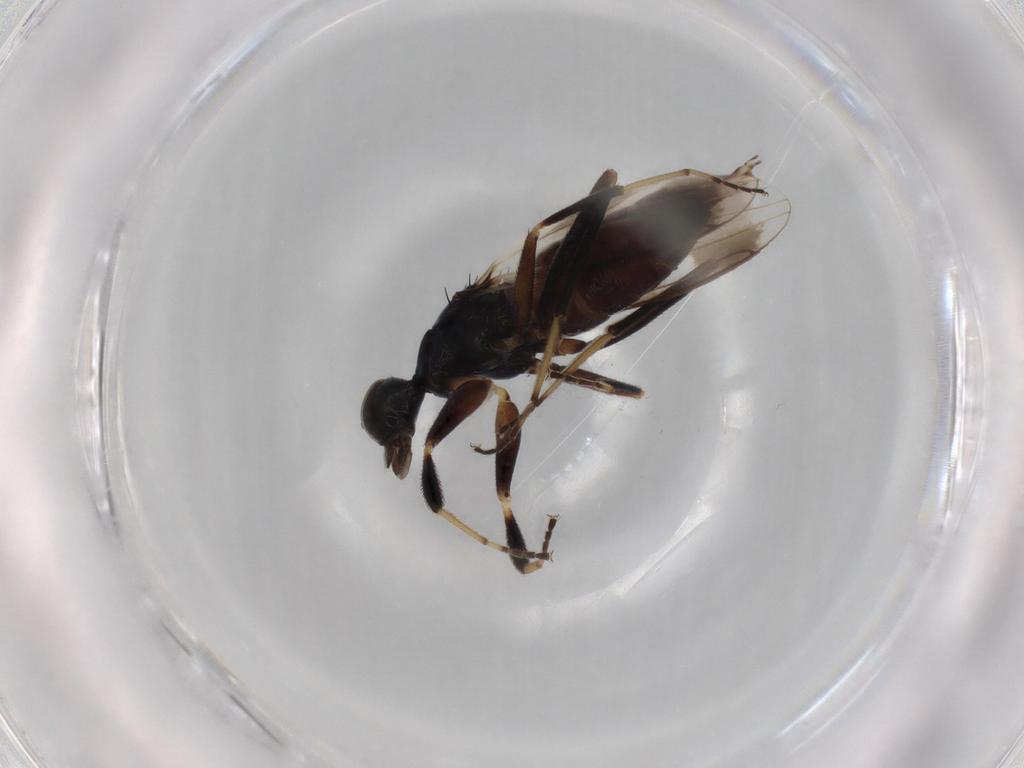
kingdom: Animalia
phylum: Arthropoda
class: Insecta
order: Diptera
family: Hybotidae
